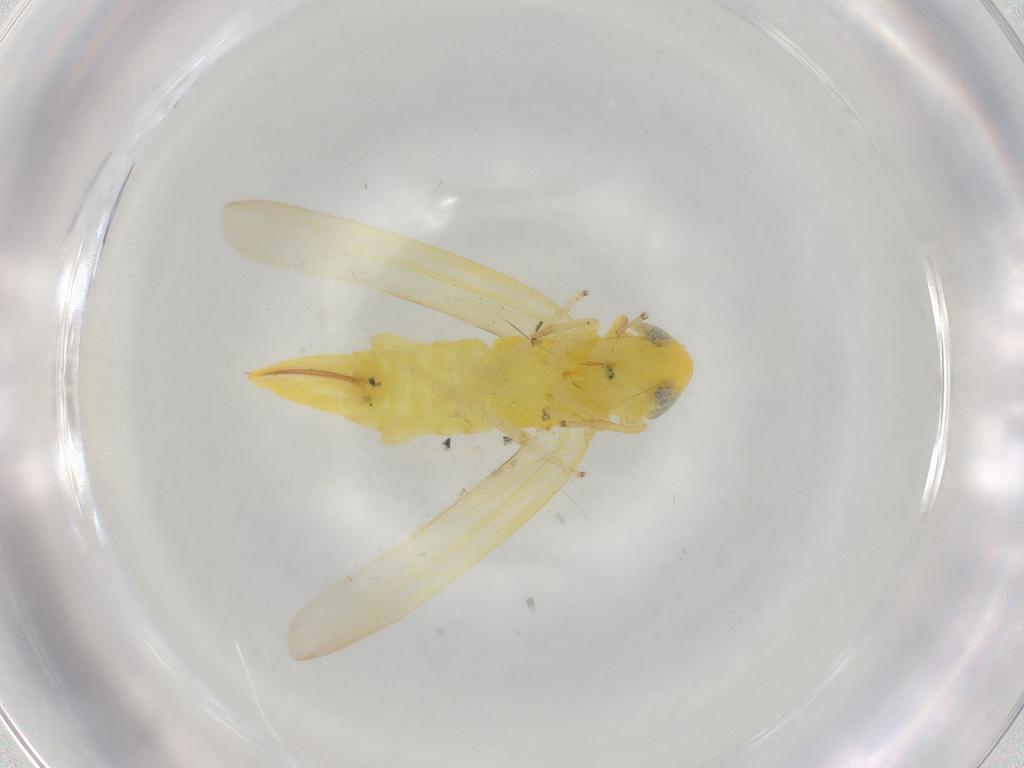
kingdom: Animalia
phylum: Arthropoda
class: Insecta
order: Hemiptera
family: Cicadellidae
